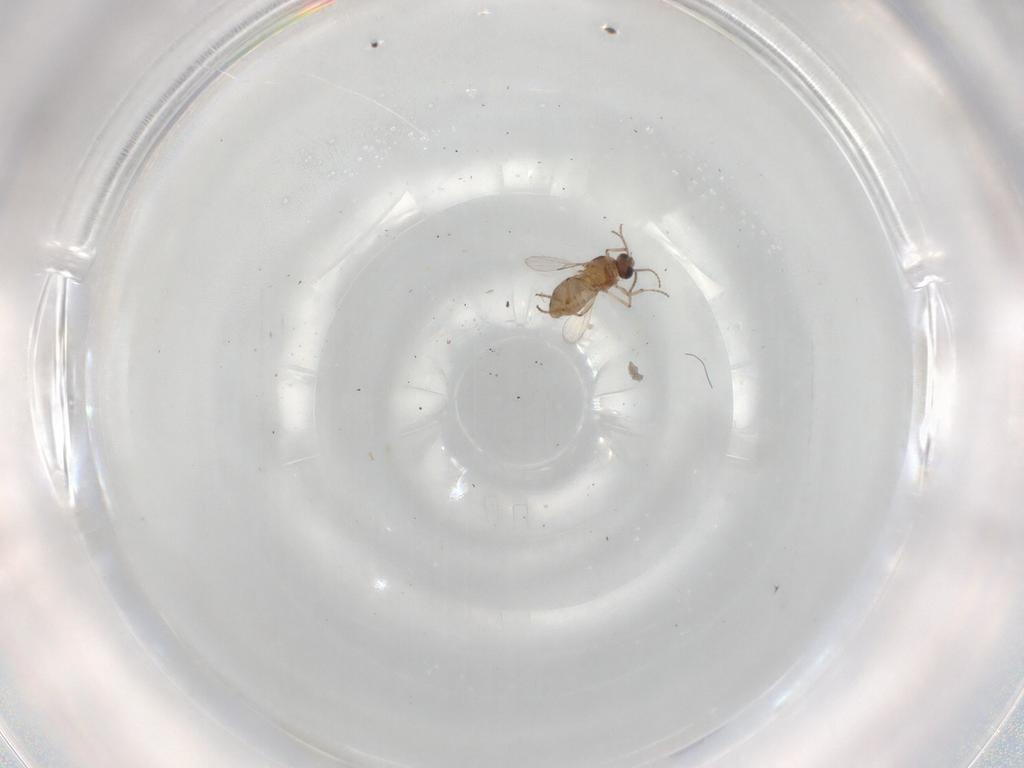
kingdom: Animalia
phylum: Arthropoda
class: Insecta
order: Diptera
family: Ceratopogonidae
